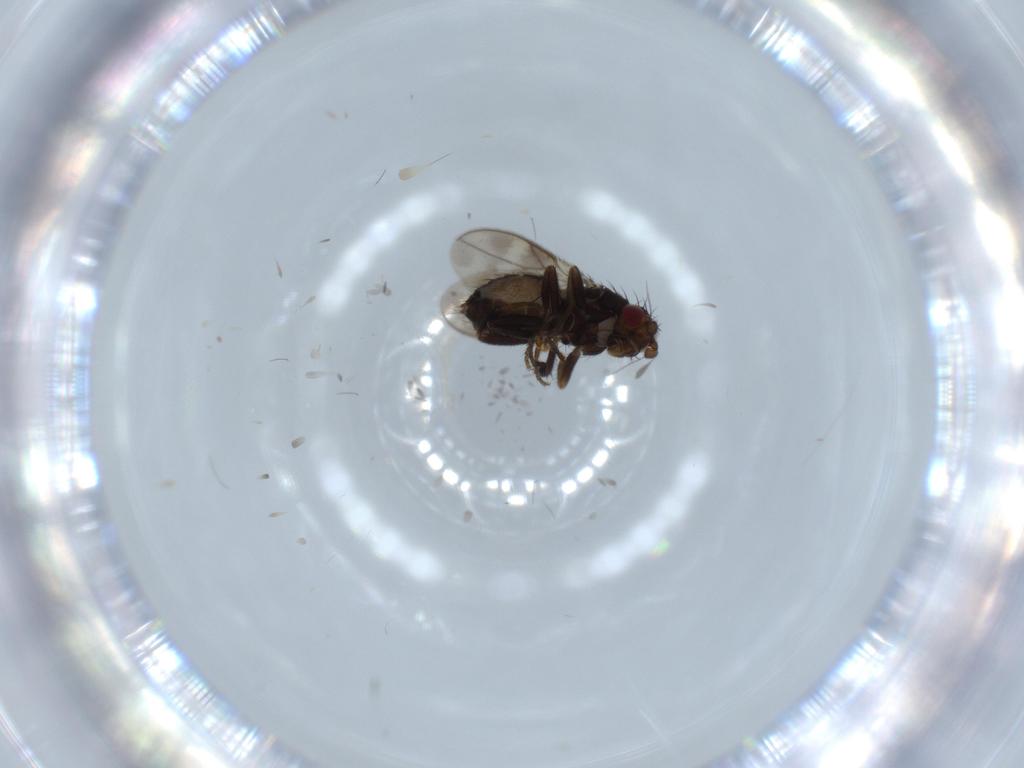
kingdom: Animalia
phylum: Arthropoda
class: Insecta
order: Diptera
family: Sphaeroceridae
